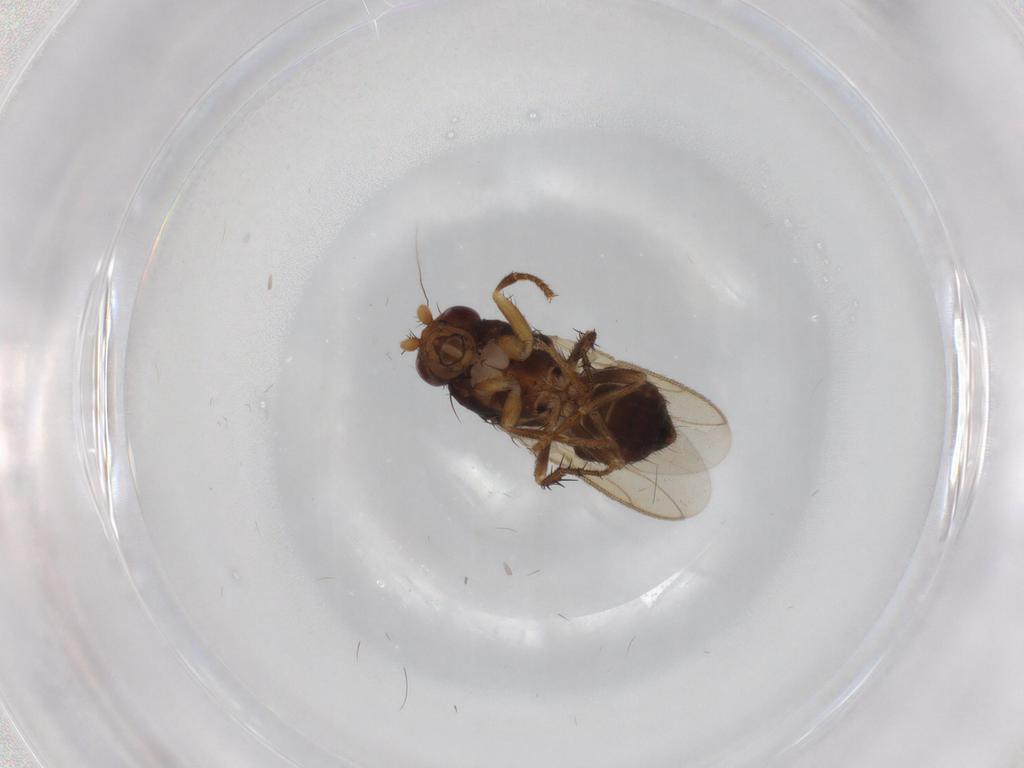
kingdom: Animalia
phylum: Arthropoda
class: Insecta
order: Diptera
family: Sphaeroceridae
